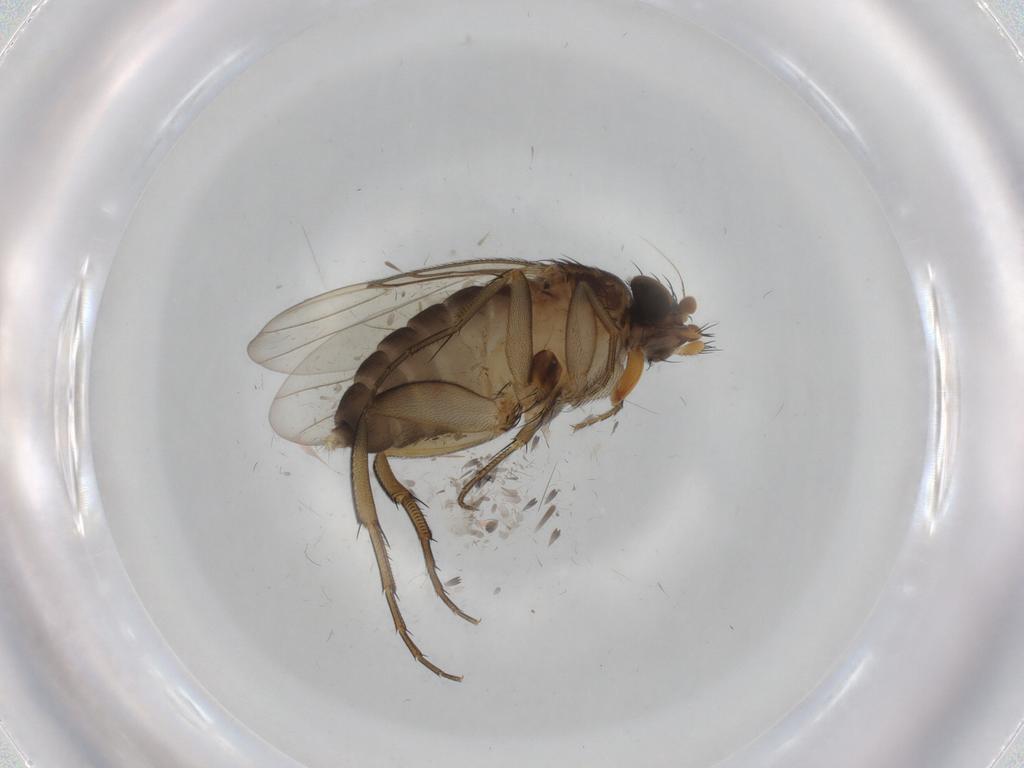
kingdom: Animalia
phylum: Arthropoda
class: Insecta
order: Diptera
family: Phoridae
